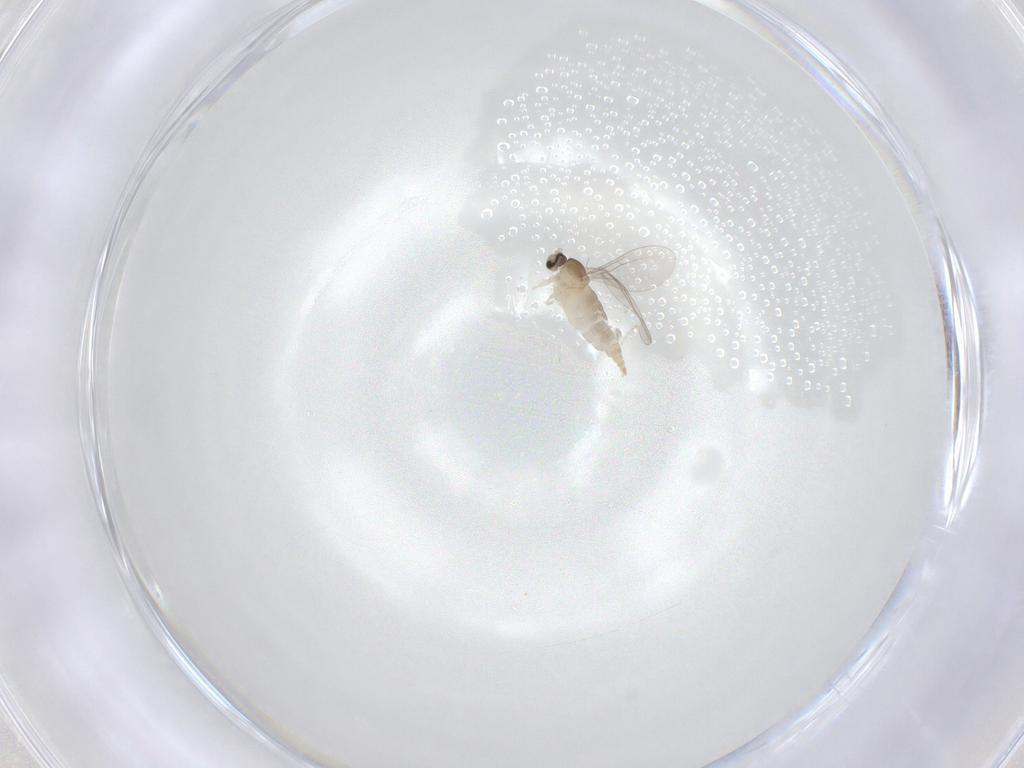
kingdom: Animalia
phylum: Arthropoda
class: Insecta
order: Diptera
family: Cecidomyiidae
